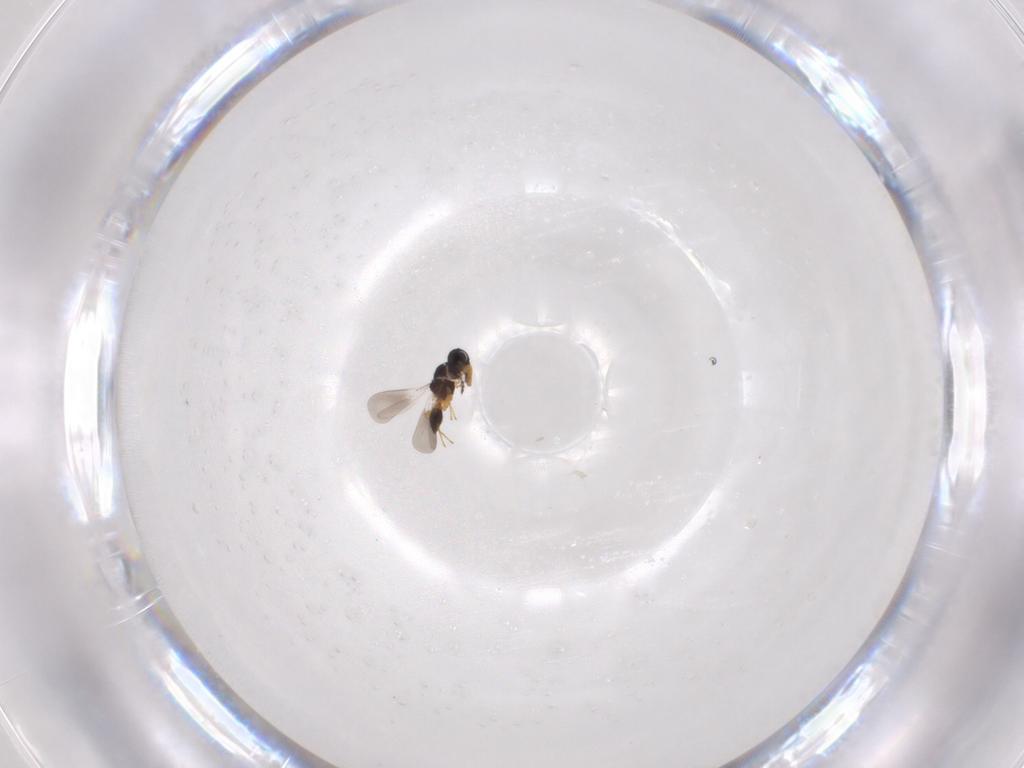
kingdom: Animalia
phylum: Arthropoda
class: Insecta
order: Hymenoptera
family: Platygastridae
